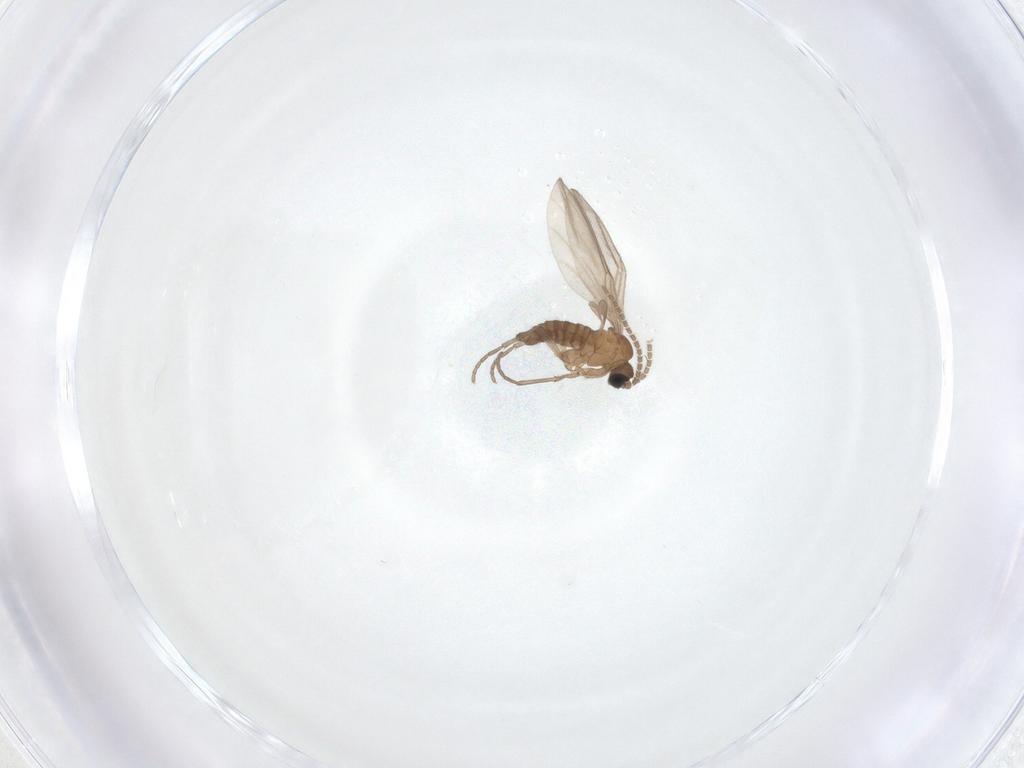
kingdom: Animalia
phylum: Arthropoda
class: Insecta
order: Diptera
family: Sciaridae
